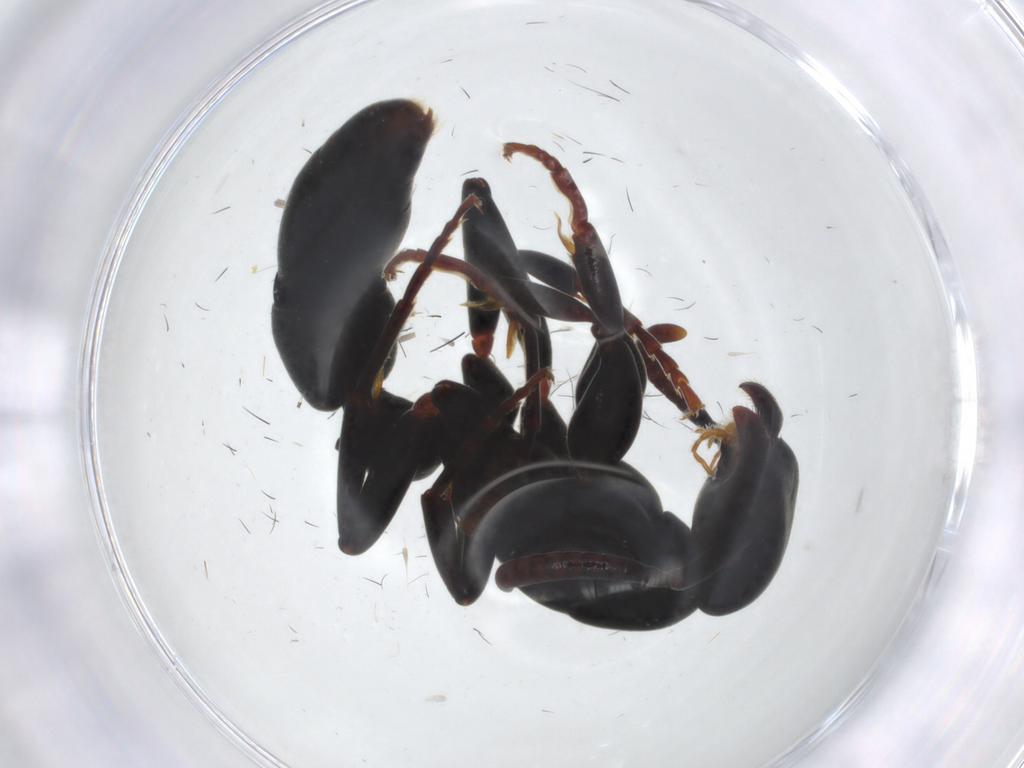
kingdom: Animalia
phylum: Arthropoda
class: Insecta
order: Hymenoptera
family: Formicidae
